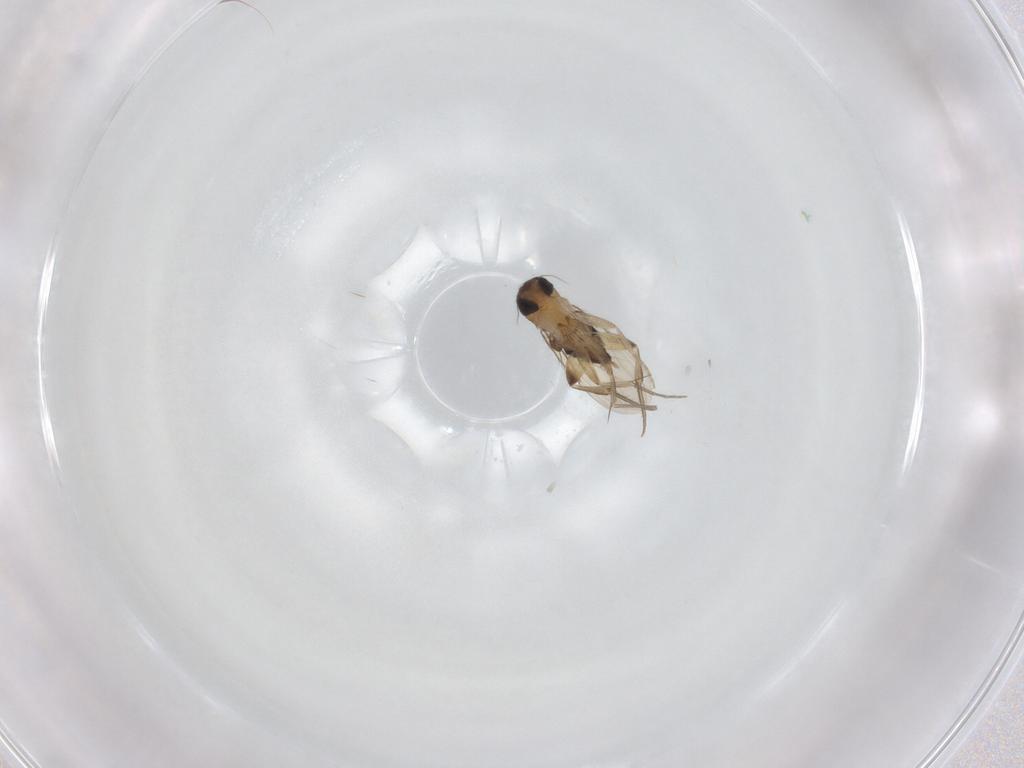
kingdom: Animalia
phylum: Arthropoda
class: Insecta
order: Diptera
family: Phoridae
